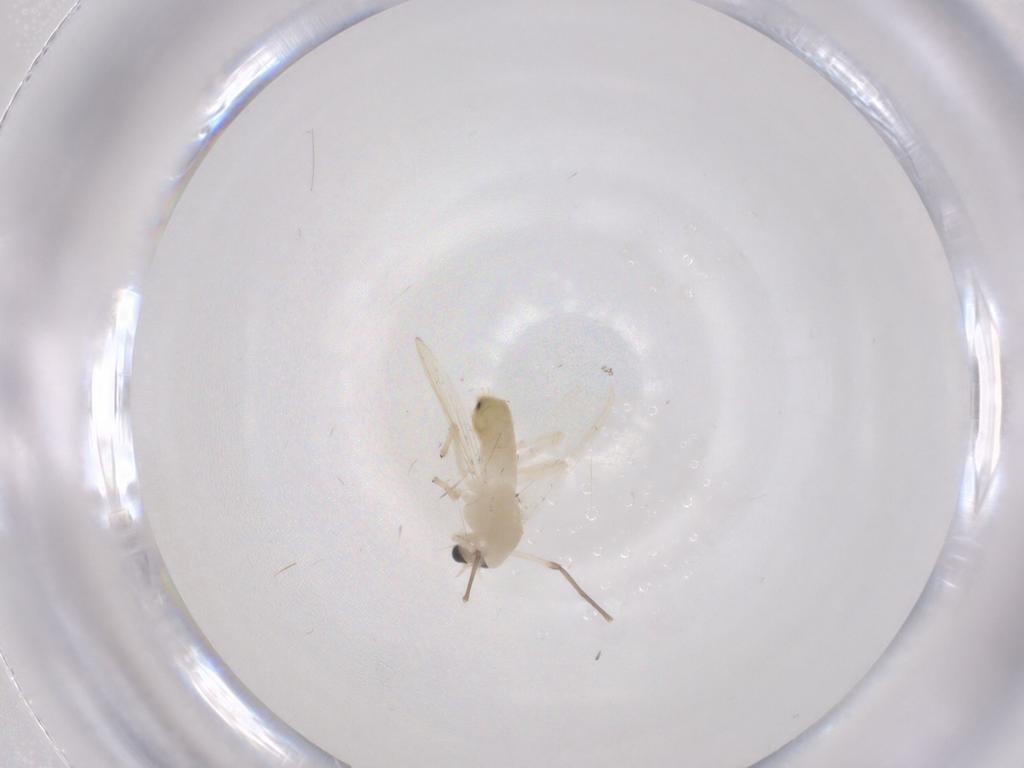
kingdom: Animalia
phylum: Arthropoda
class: Insecta
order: Diptera
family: Chironomidae
